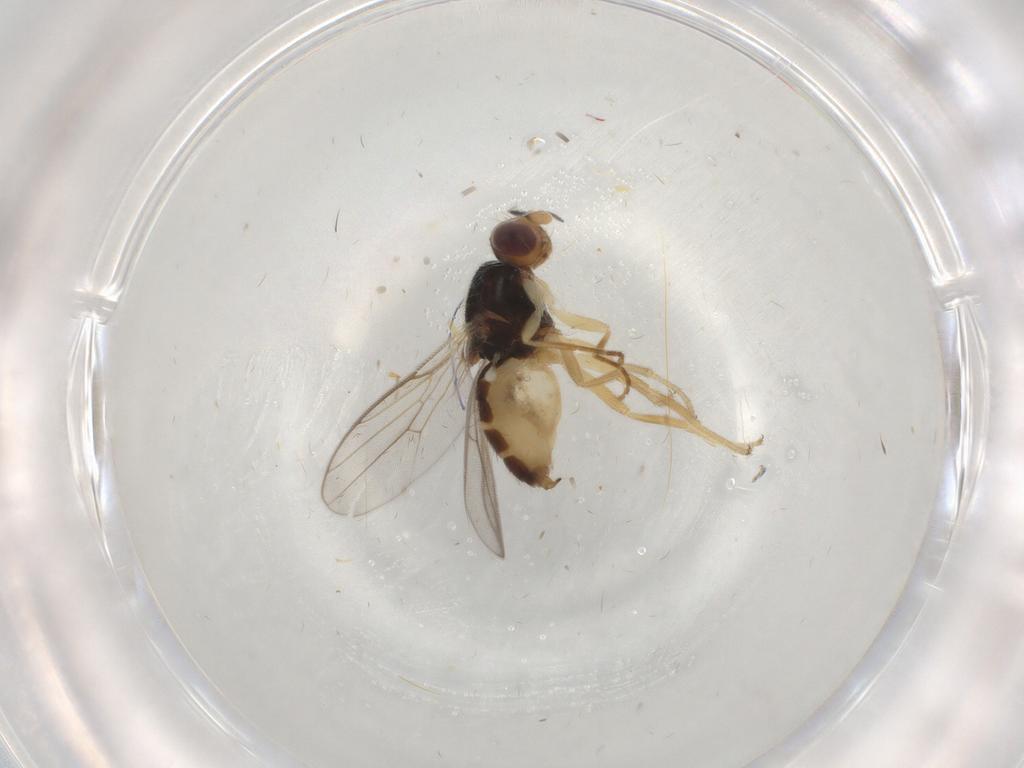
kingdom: Animalia
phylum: Arthropoda
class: Insecta
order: Diptera
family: Chloropidae
